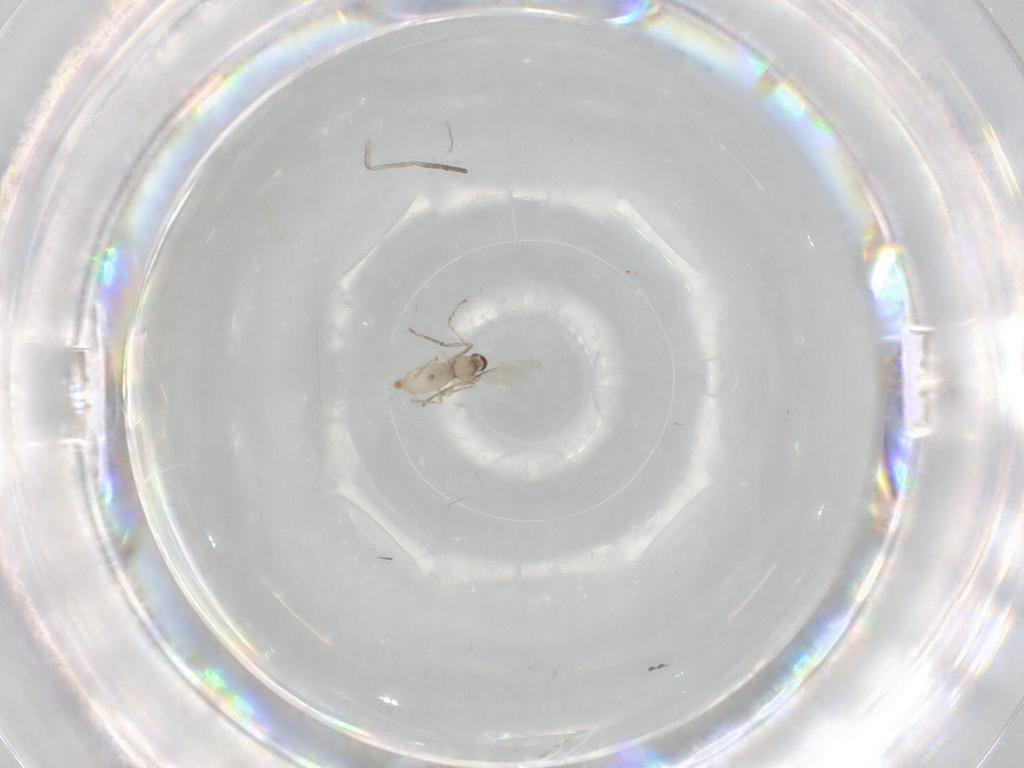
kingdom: Animalia
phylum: Arthropoda
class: Insecta
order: Diptera
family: Cecidomyiidae
